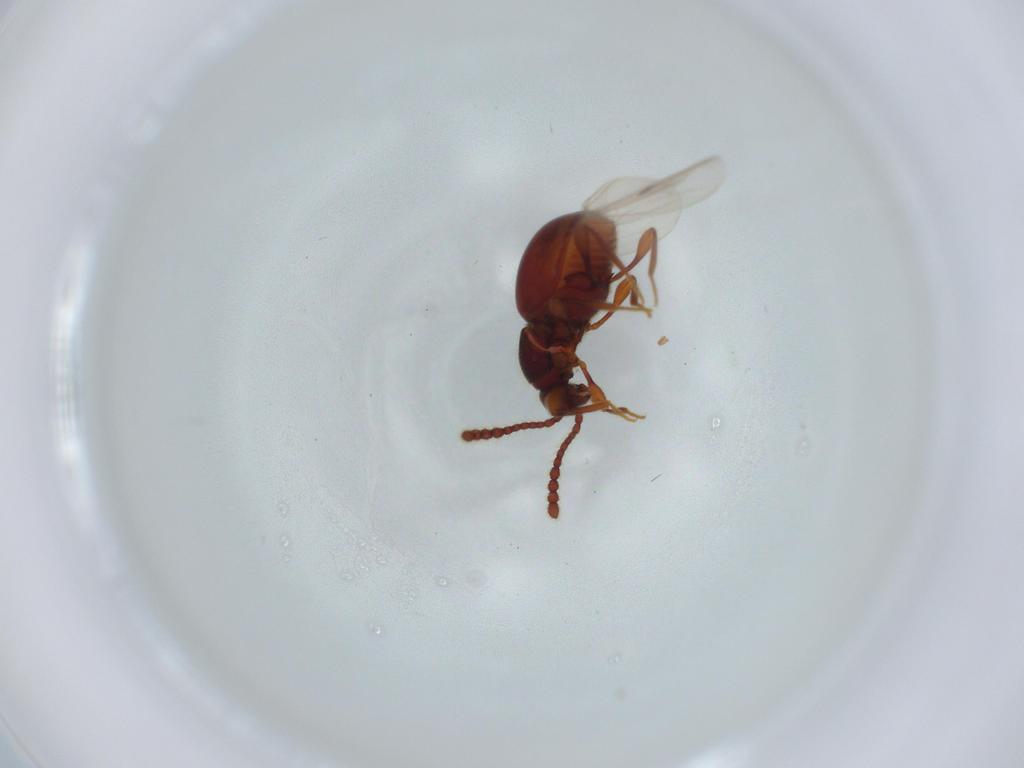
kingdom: Animalia
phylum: Arthropoda
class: Insecta
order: Coleoptera
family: Staphylinidae
